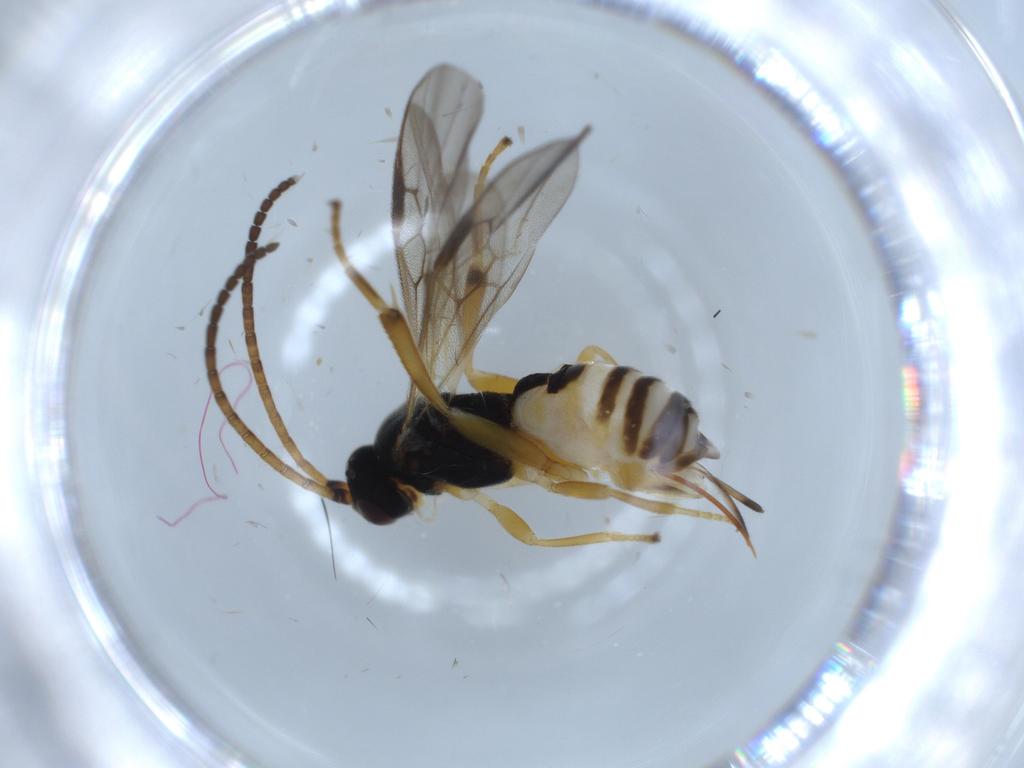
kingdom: Animalia
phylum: Arthropoda
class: Insecta
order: Hymenoptera
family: Braconidae
